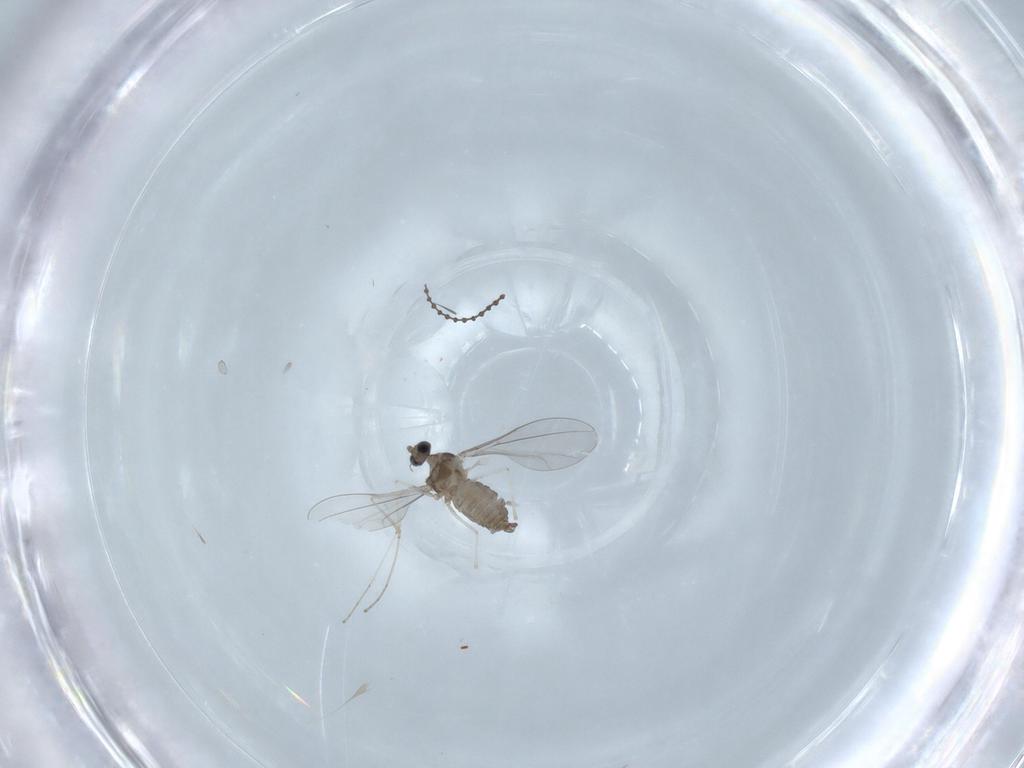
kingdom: Animalia
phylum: Arthropoda
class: Insecta
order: Diptera
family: Cecidomyiidae
